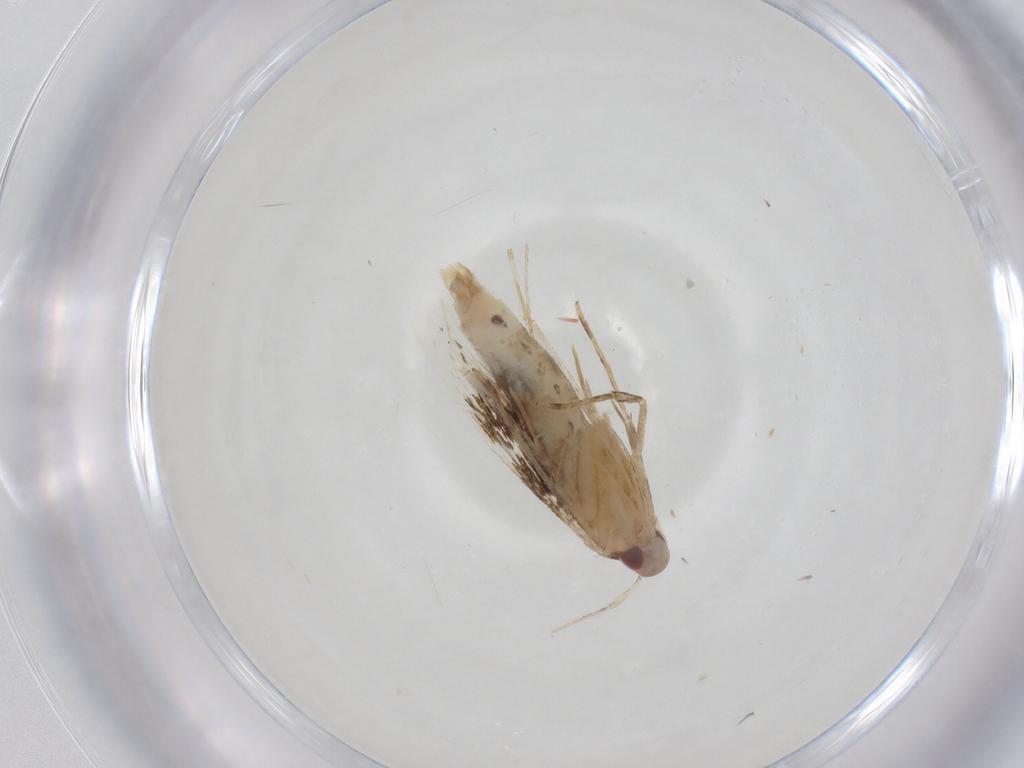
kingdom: Animalia
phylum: Arthropoda
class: Insecta
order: Lepidoptera
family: Cosmopterigidae
